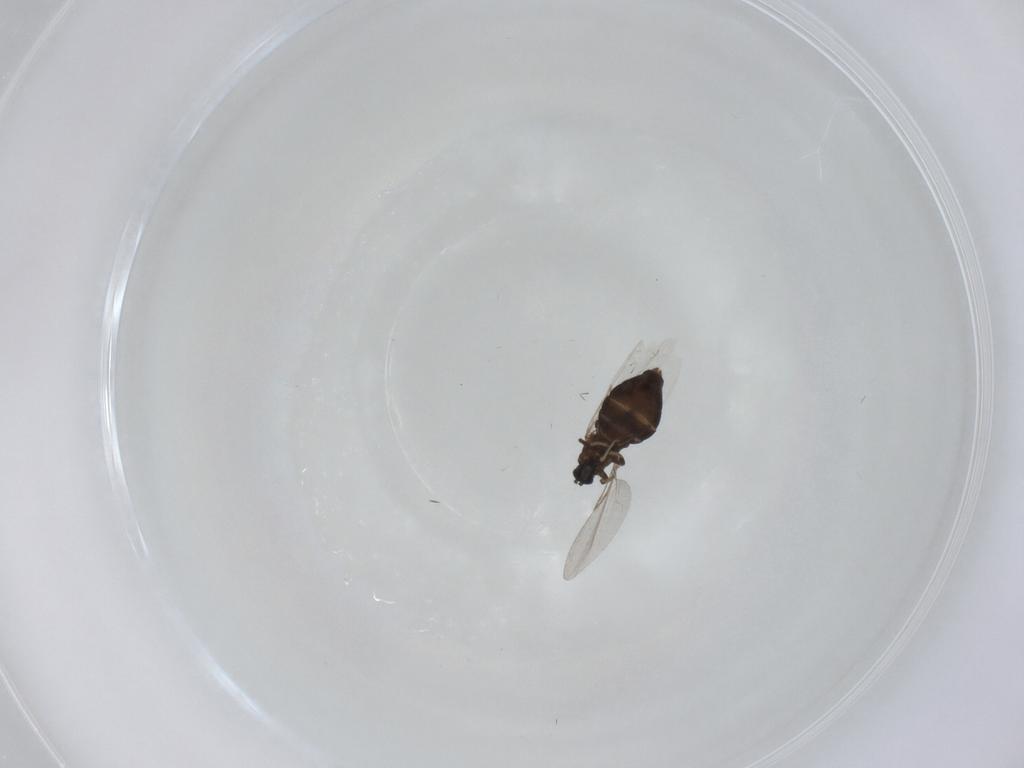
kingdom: Animalia
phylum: Arthropoda
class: Insecta
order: Diptera
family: Scatopsidae
